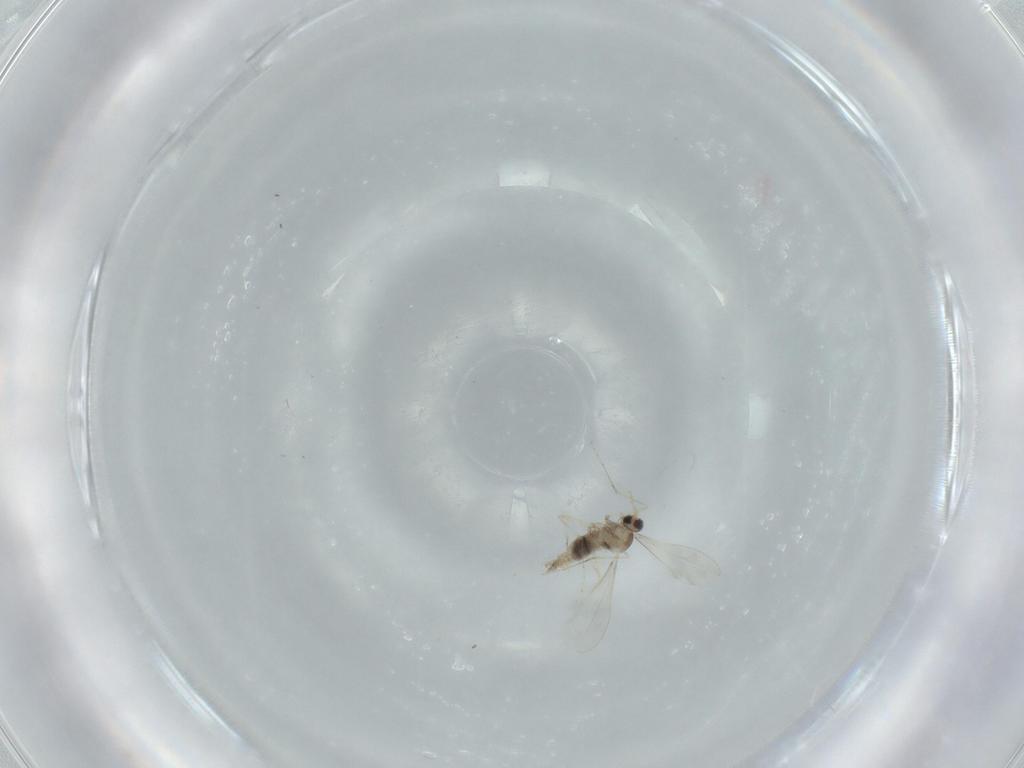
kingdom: Animalia
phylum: Arthropoda
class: Insecta
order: Diptera
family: Cecidomyiidae
